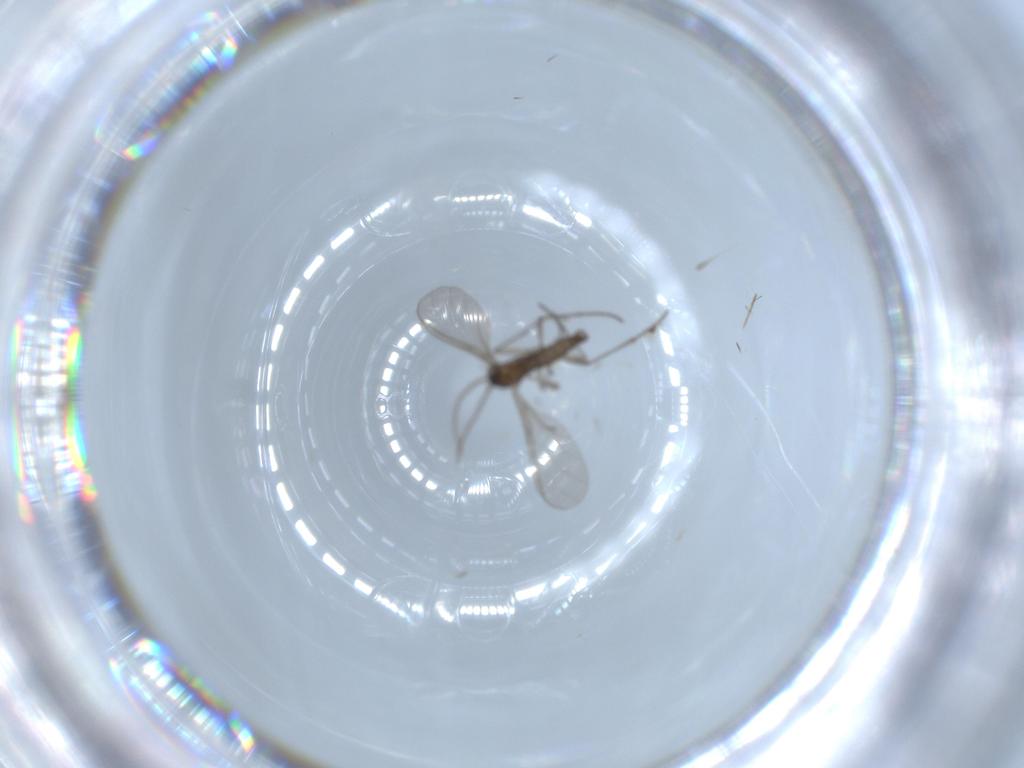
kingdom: Animalia
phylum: Arthropoda
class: Insecta
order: Diptera
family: Sciaridae
